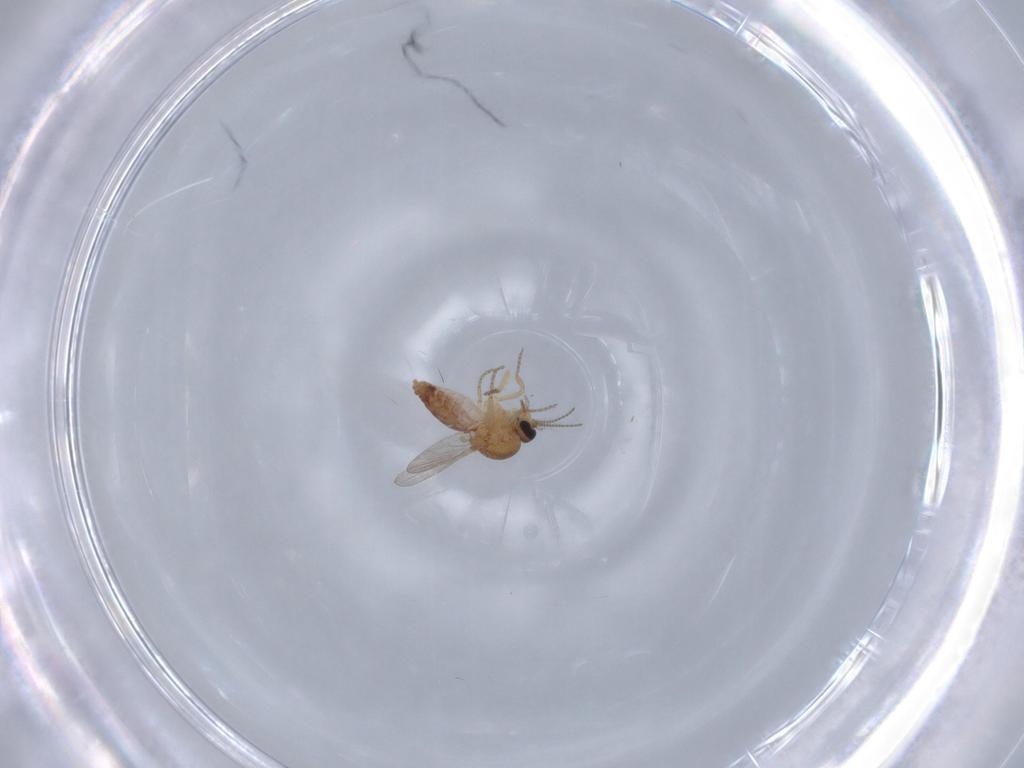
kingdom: Animalia
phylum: Arthropoda
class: Insecta
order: Diptera
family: Ceratopogonidae
